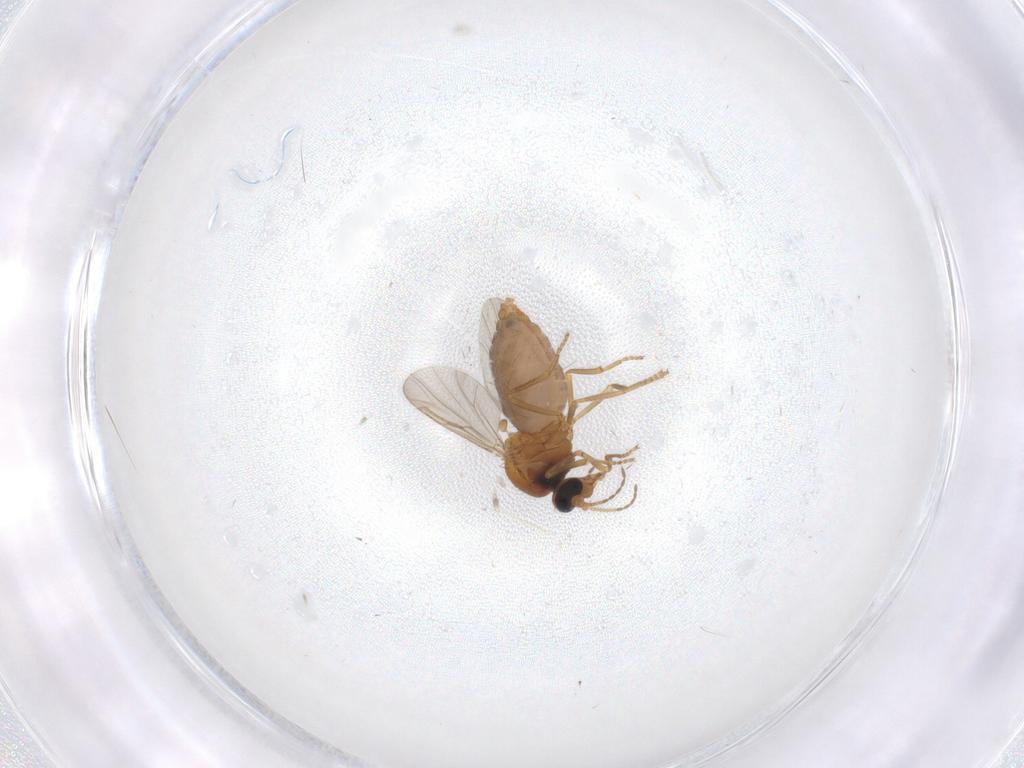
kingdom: Animalia
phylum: Arthropoda
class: Insecta
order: Diptera
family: Ceratopogonidae
